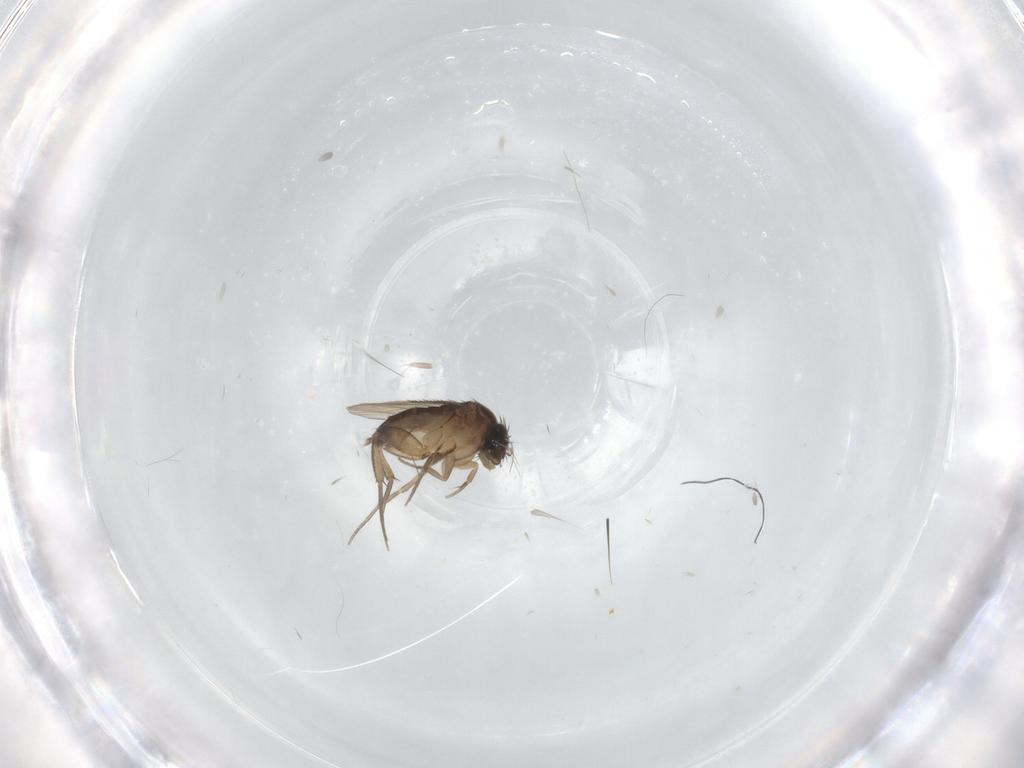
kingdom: Animalia
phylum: Arthropoda
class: Insecta
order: Diptera
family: Phoridae
